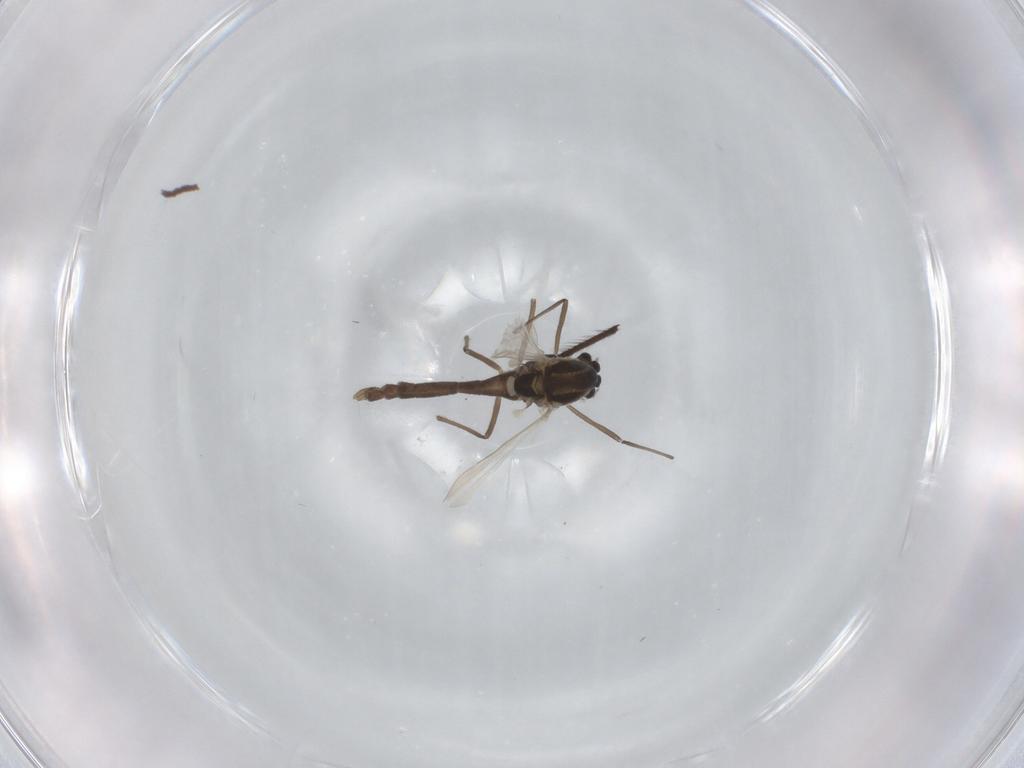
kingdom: Animalia
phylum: Arthropoda
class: Insecta
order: Diptera
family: Chironomidae
